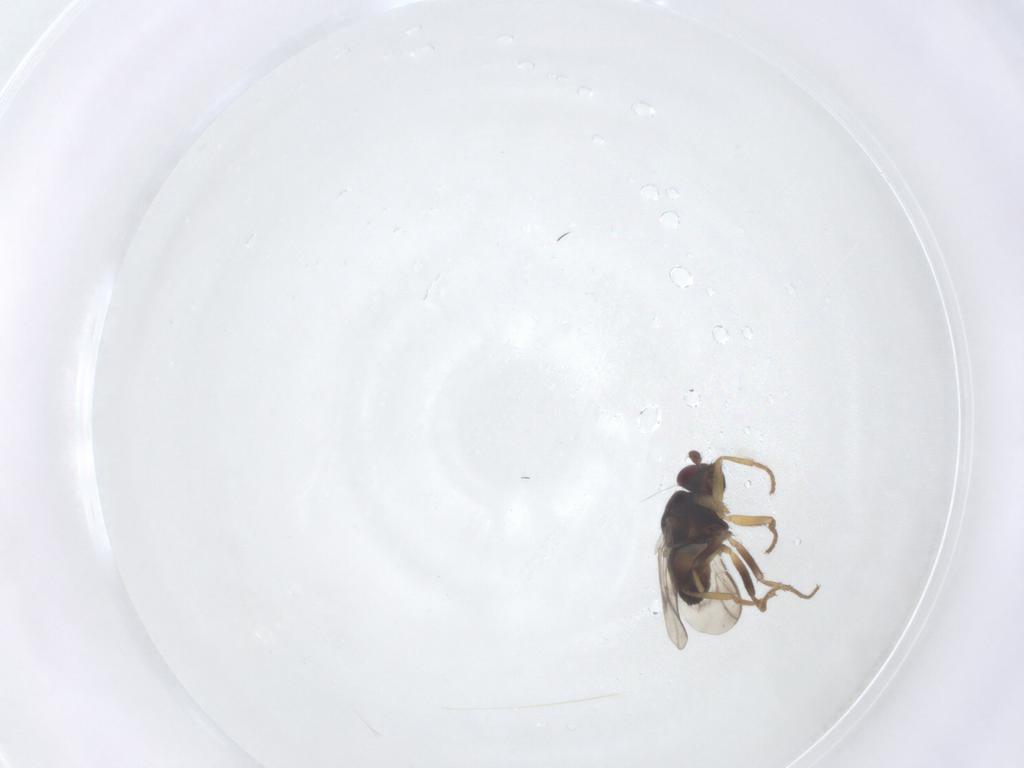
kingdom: Animalia
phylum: Arthropoda
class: Insecta
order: Diptera
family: Sphaeroceridae
